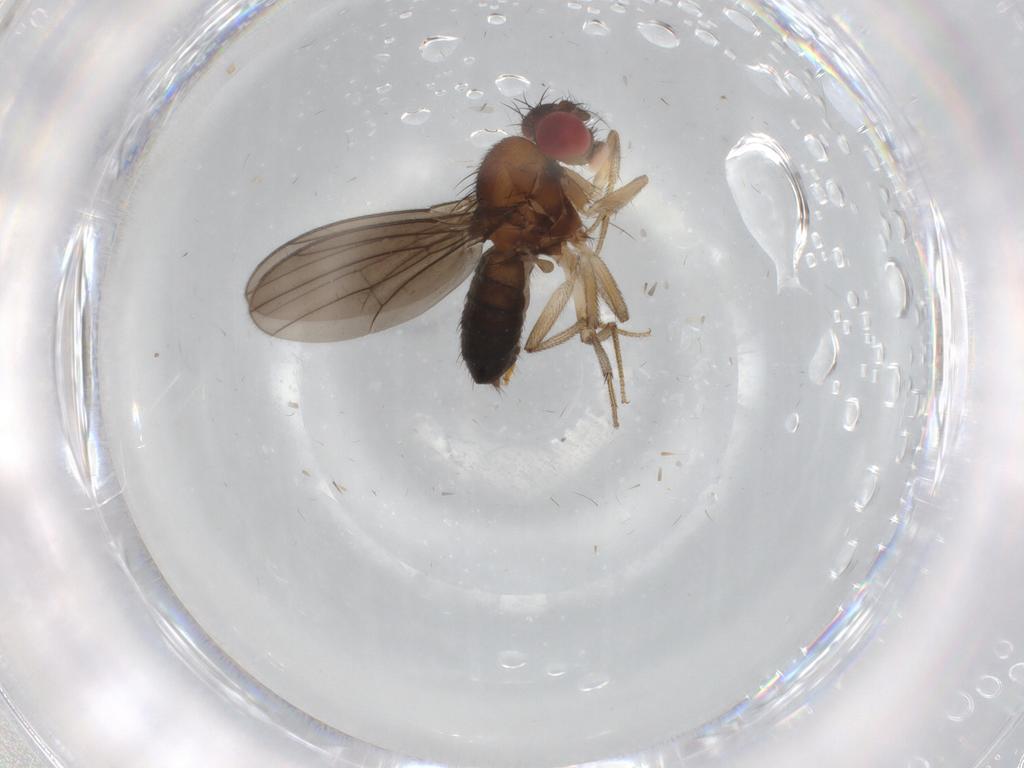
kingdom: Animalia
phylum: Arthropoda
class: Insecta
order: Diptera
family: Drosophilidae
